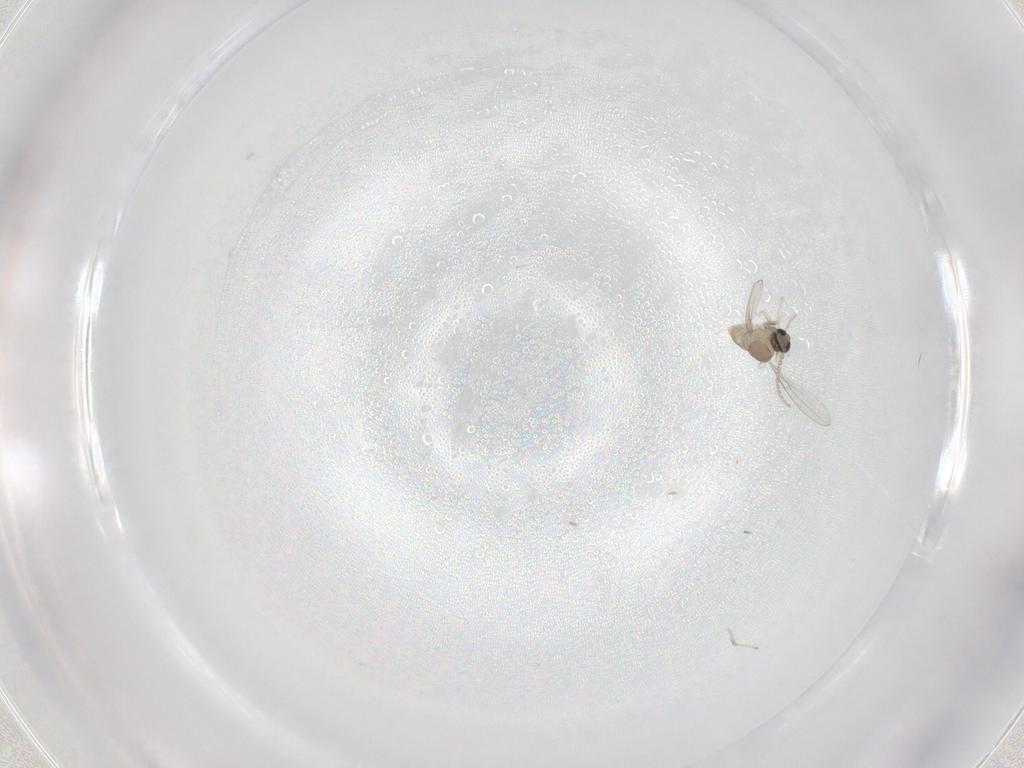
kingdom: Animalia
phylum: Arthropoda
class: Insecta
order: Diptera
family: Cecidomyiidae
